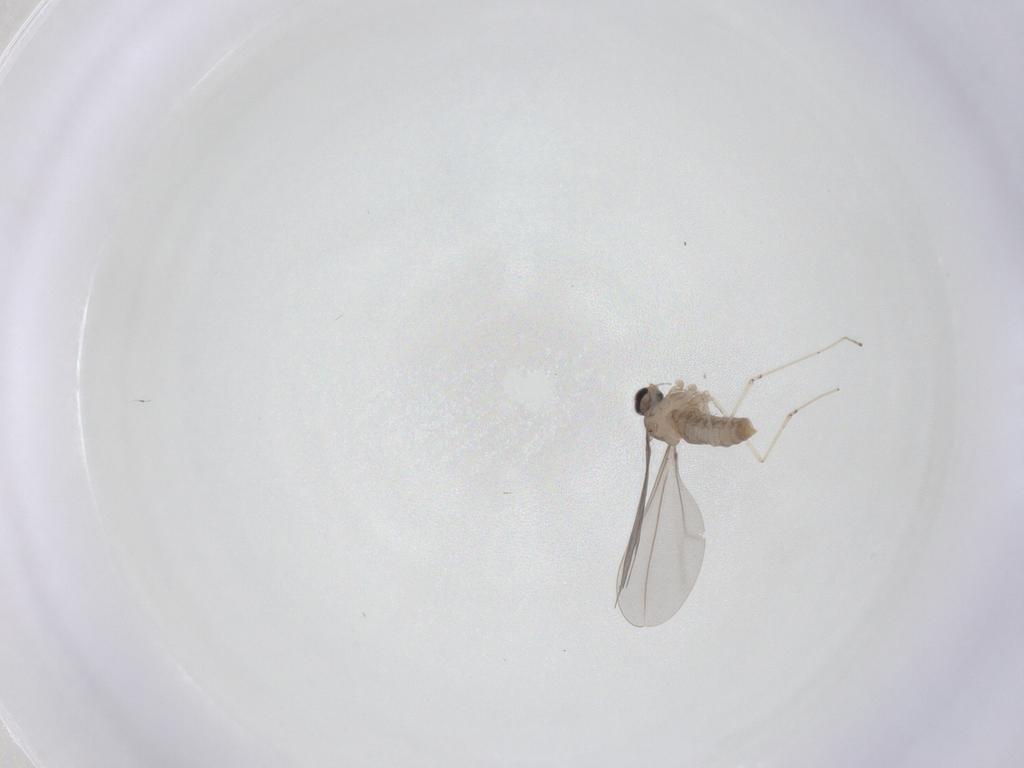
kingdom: Animalia
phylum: Arthropoda
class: Insecta
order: Diptera
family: Cecidomyiidae
